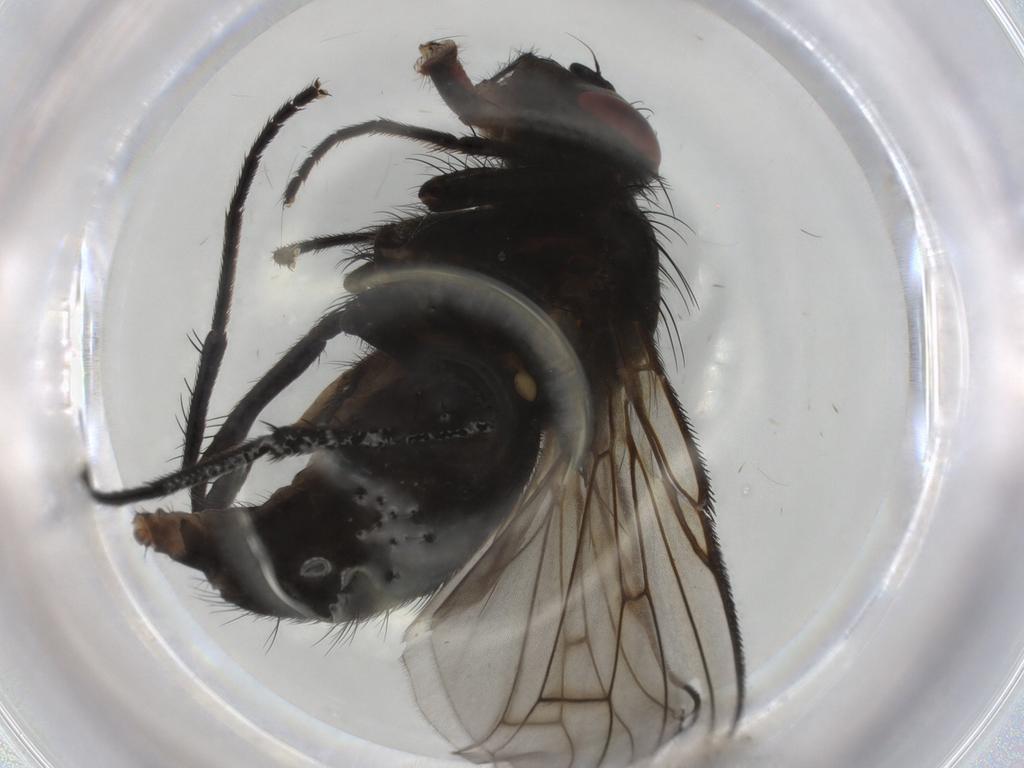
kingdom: Animalia
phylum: Arthropoda
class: Insecta
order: Diptera
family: Muscidae
